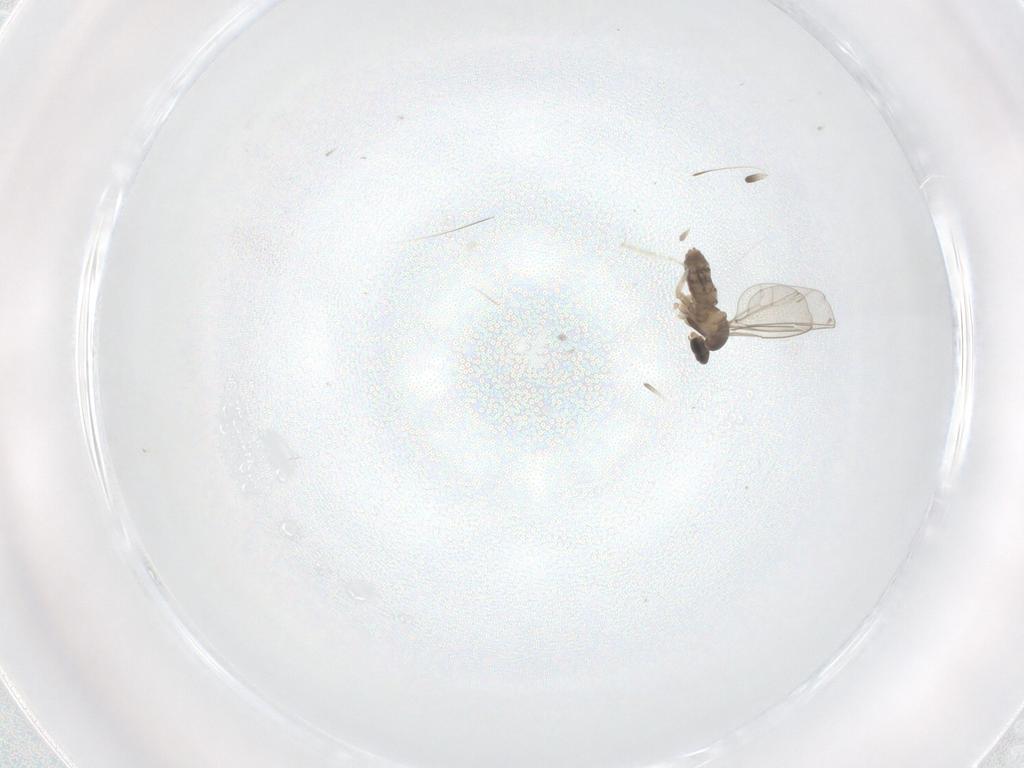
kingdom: Animalia
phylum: Arthropoda
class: Insecta
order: Diptera
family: Cecidomyiidae
